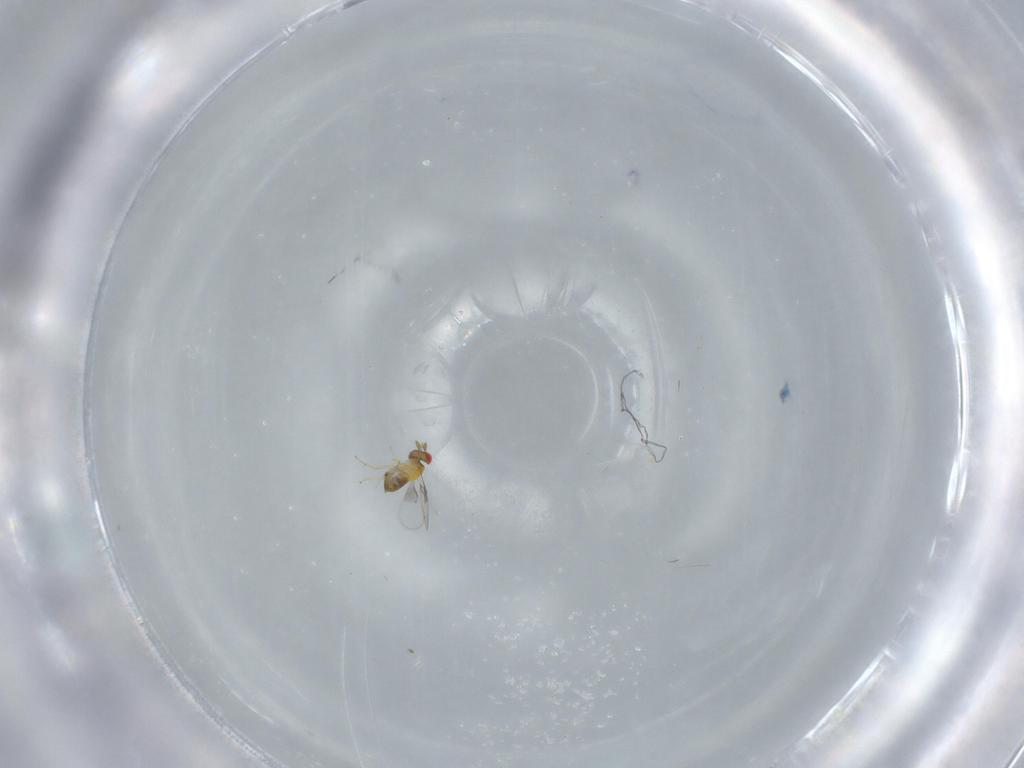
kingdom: Animalia
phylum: Arthropoda
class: Insecta
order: Hymenoptera
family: Trichogrammatidae
